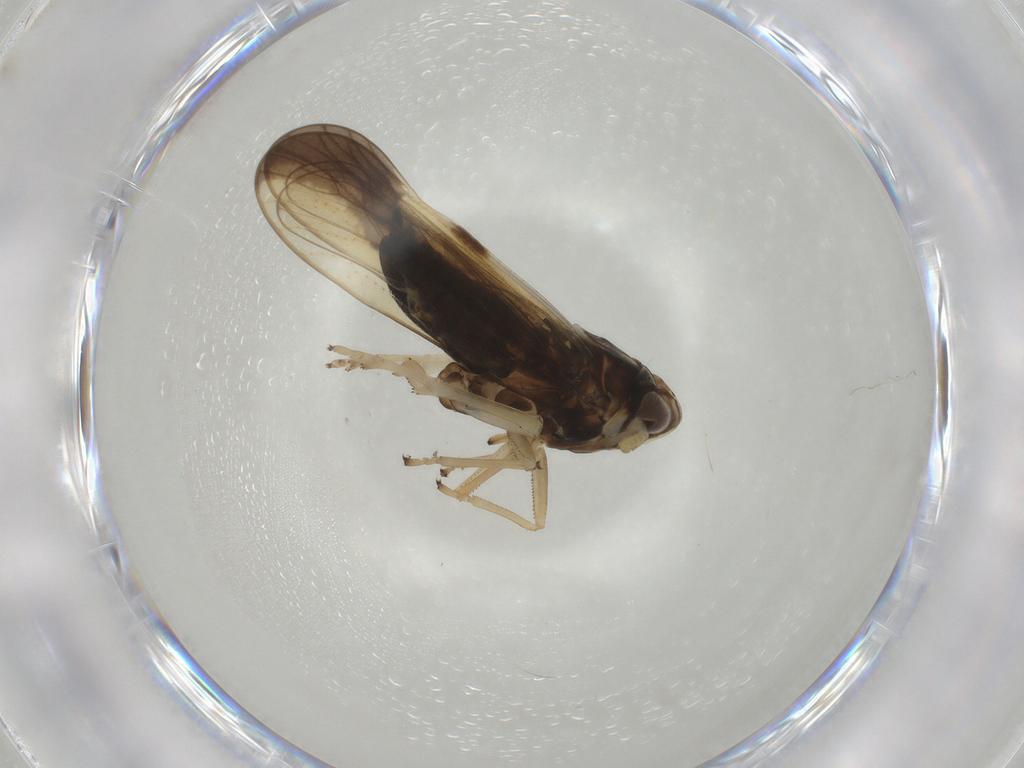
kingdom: Animalia
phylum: Arthropoda
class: Insecta
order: Hemiptera
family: Delphacidae
